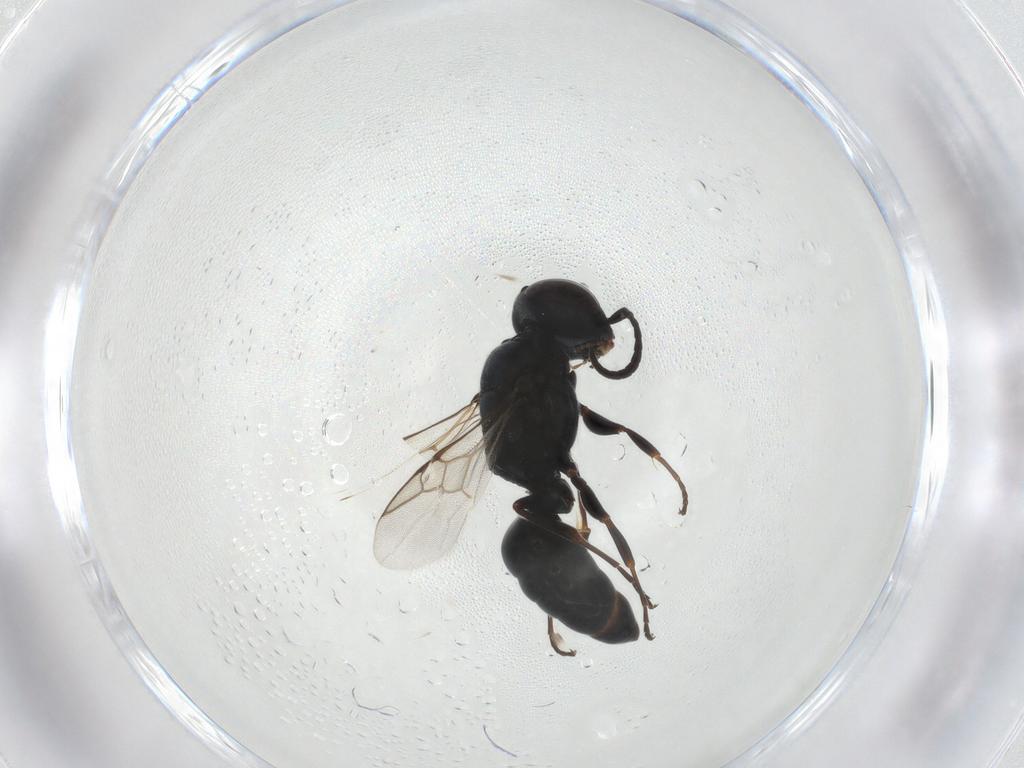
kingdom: Animalia
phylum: Arthropoda
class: Insecta
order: Hymenoptera
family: Crabronidae
